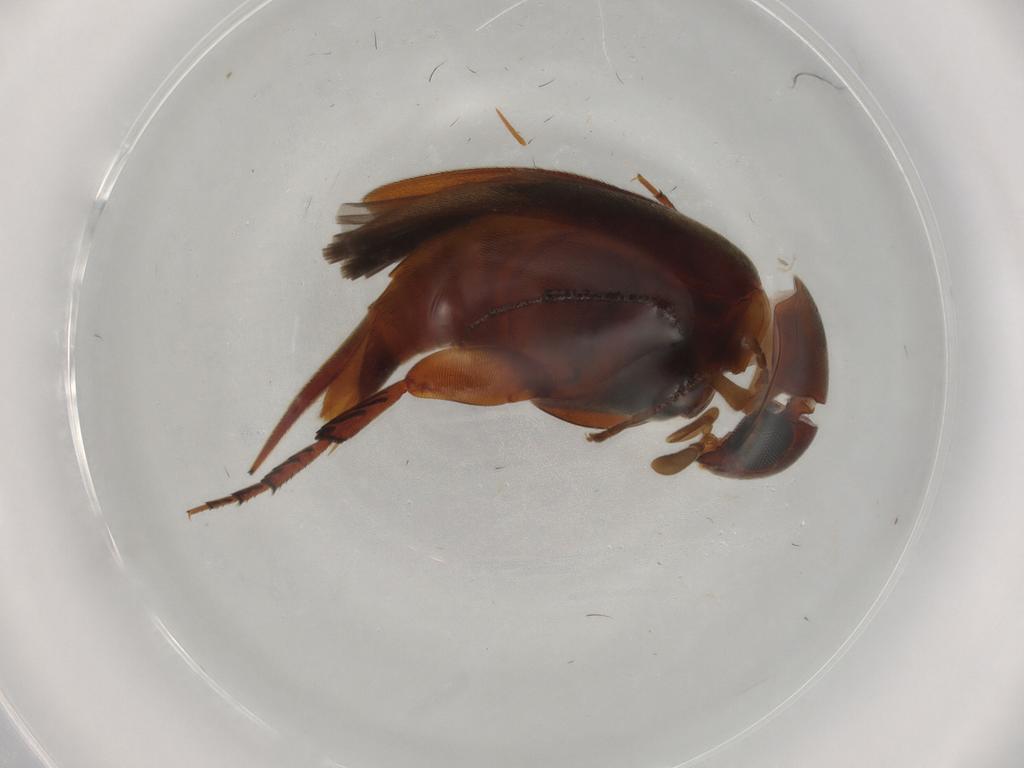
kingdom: Animalia
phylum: Arthropoda
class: Insecta
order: Coleoptera
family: Mordellidae
